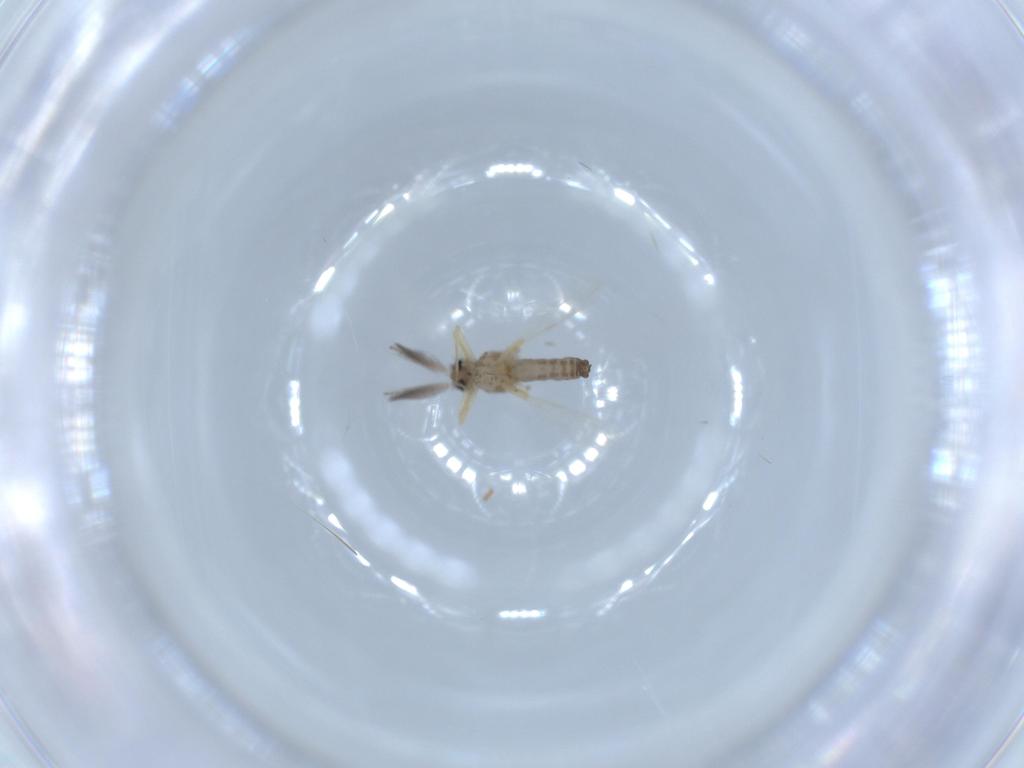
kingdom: Animalia
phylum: Arthropoda
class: Insecta
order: Diptera
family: Ceratopogonidae
